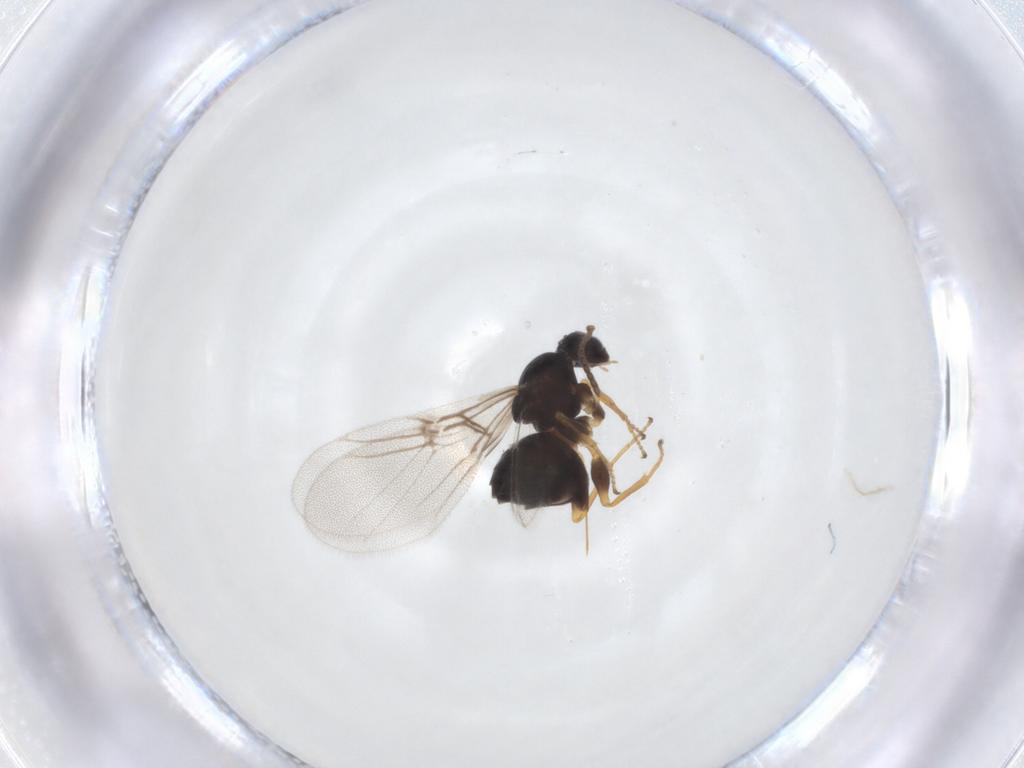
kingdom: Animalia
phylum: Arthropoda
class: Insecta
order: Hymenoptera
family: Cynipidae
